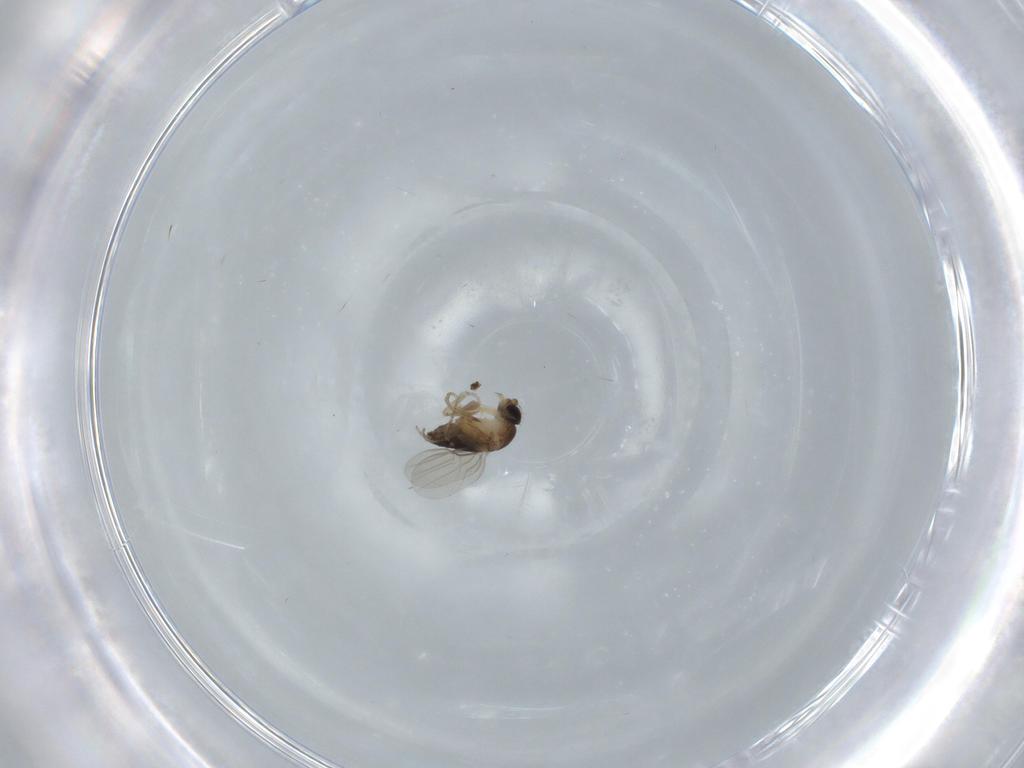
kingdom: Animalia
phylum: Arthropoda
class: Insecta
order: Diptera
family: Phoridae
